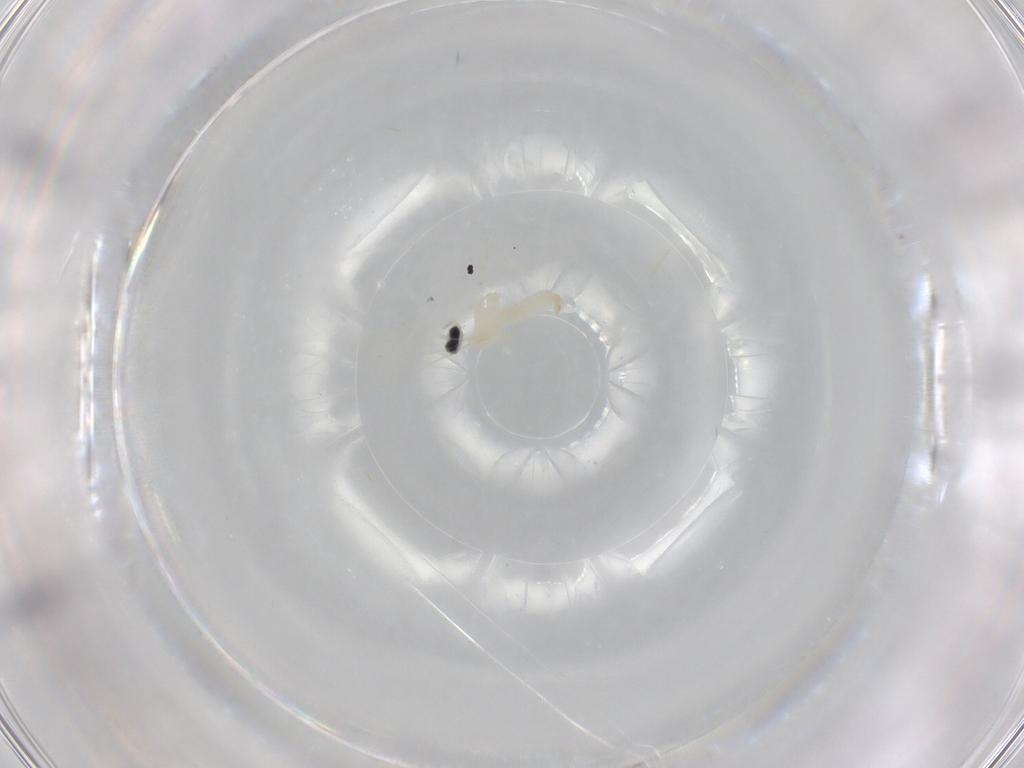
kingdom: Animalia
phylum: Arthropoda
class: Insecta
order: Diptera
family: Cecidomyiidae
